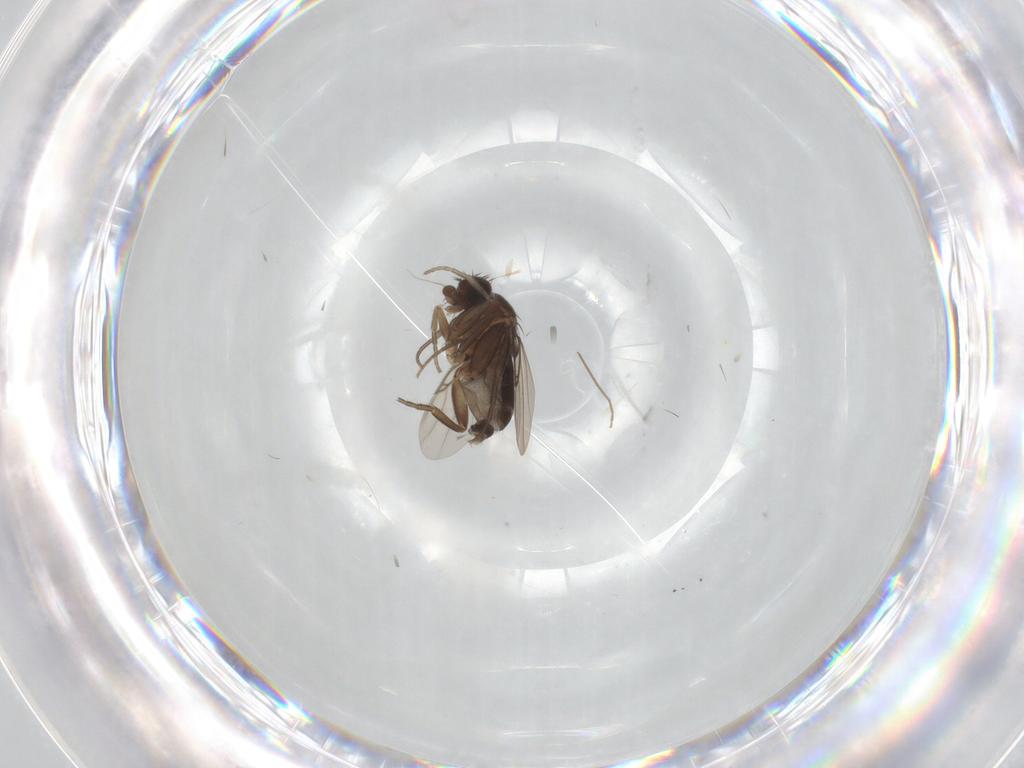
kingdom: Animalia
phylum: Arthropoda
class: Insecta
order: Diptera
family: Phoridae
